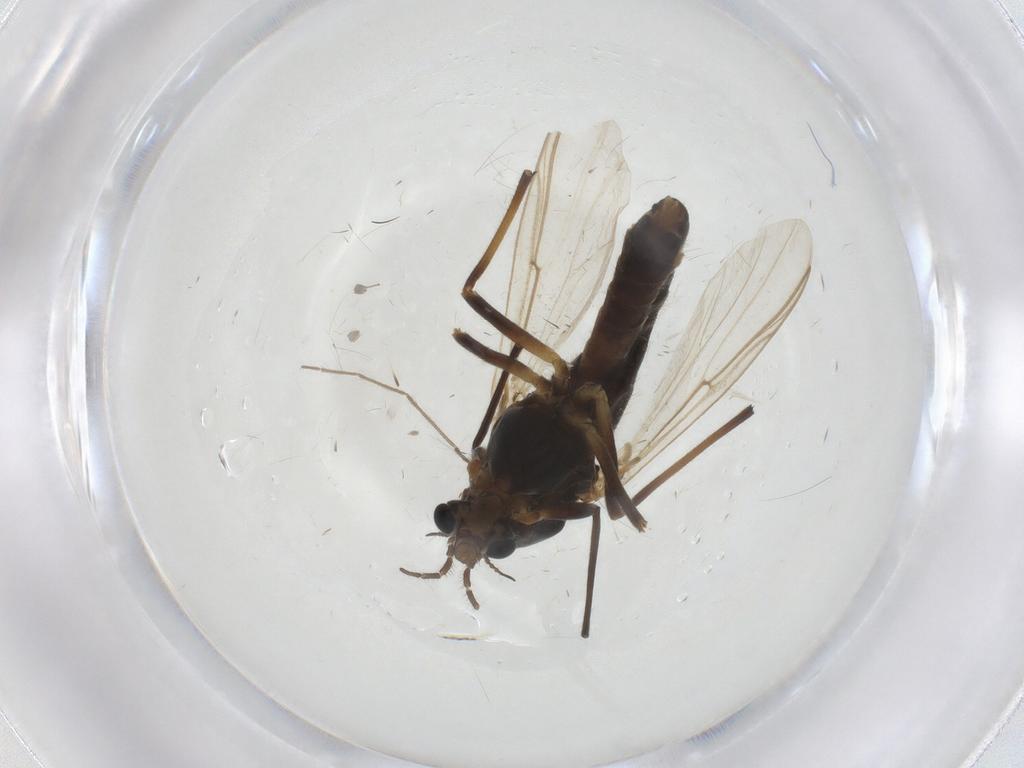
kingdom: Animalia
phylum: Arthropoda
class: Insecta
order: Diptera
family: Chironomidae
